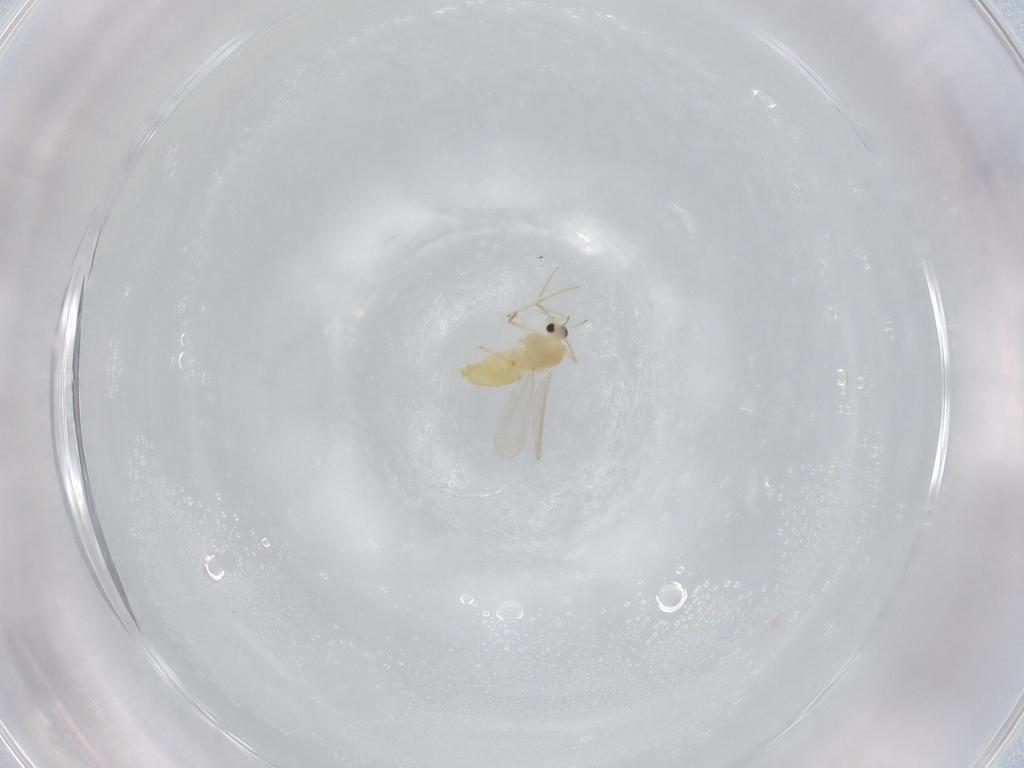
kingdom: Animalia
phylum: Arthropoda
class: Insecta
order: Diptera
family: Chironomidae
